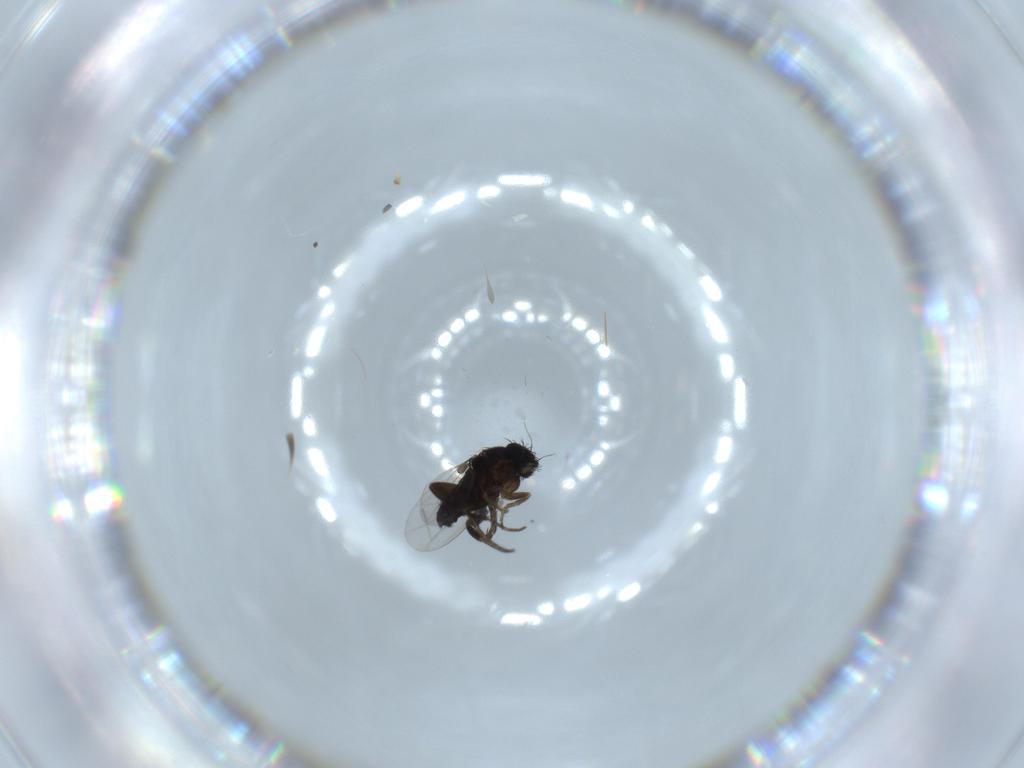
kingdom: Animalia
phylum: Arthropoda
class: Insecta
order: Diptera
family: Phoridae
